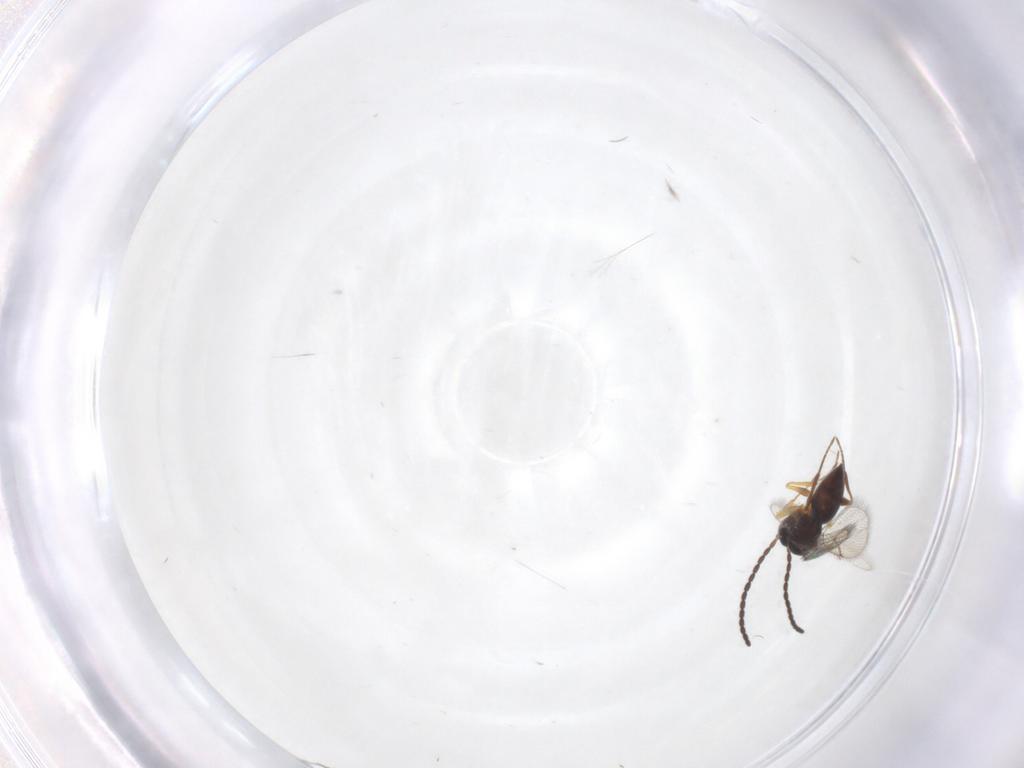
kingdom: Animalia
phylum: Arthropoda
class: Insecta
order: Hymenoptera
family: Figitidae
